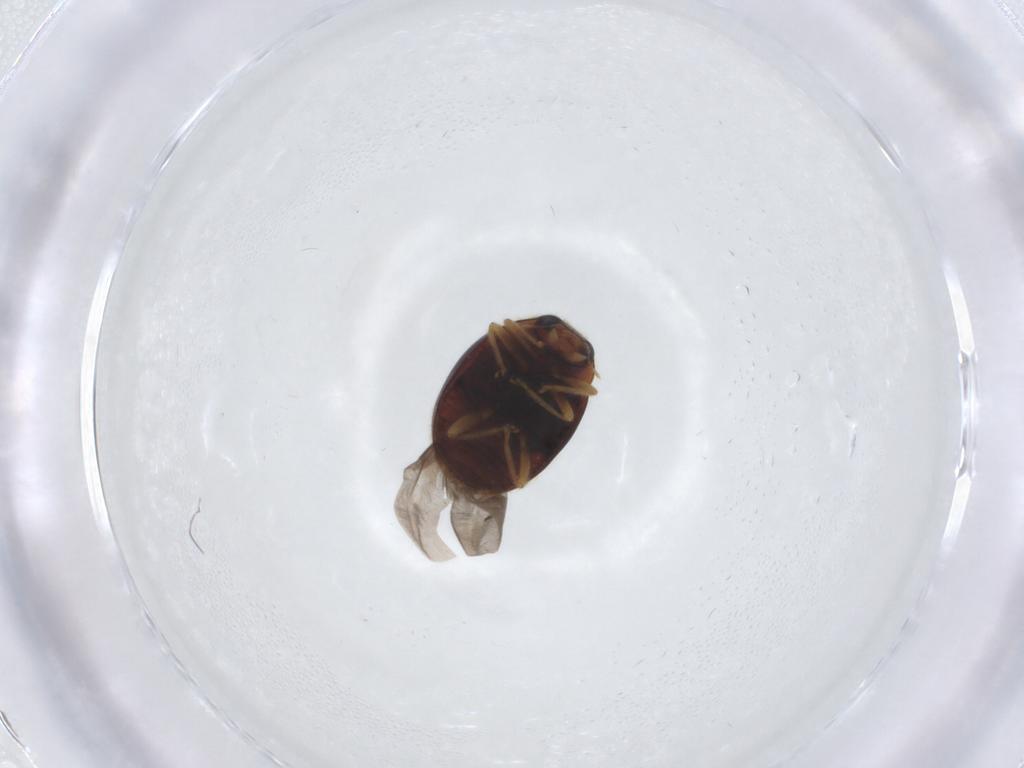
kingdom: Animalia
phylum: Arthropoda
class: Insecta
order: Coleoptera
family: Coccinellidae
